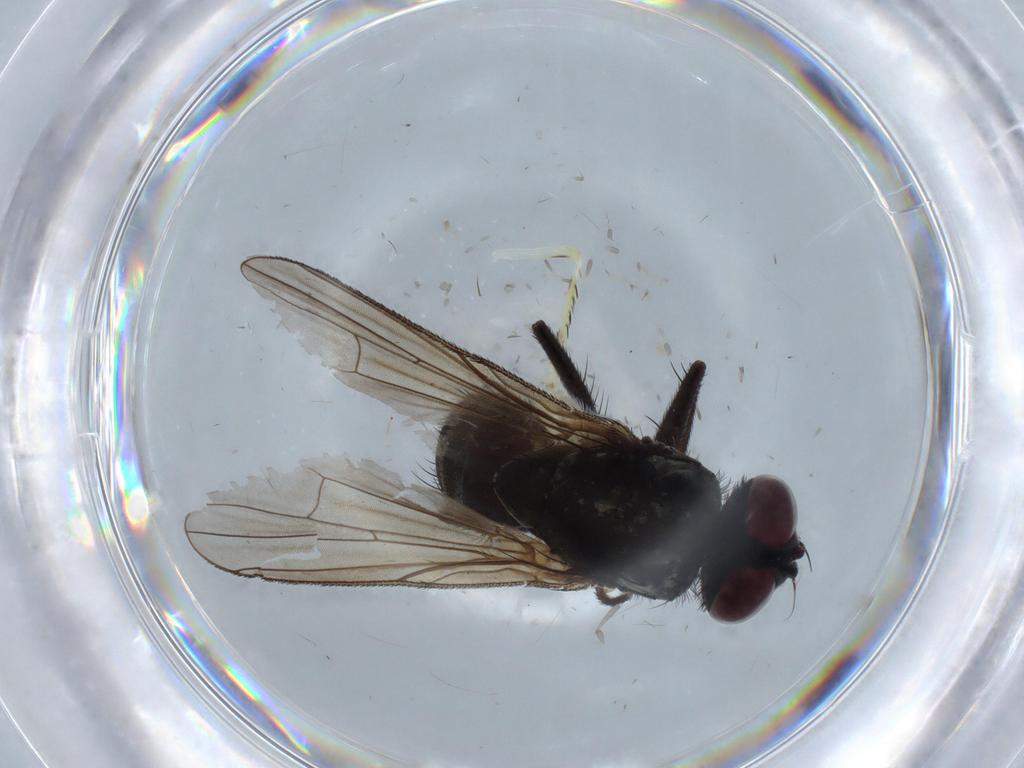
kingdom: Animalia
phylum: Arthropoda
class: Insecta
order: Diptera
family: Muscidae
